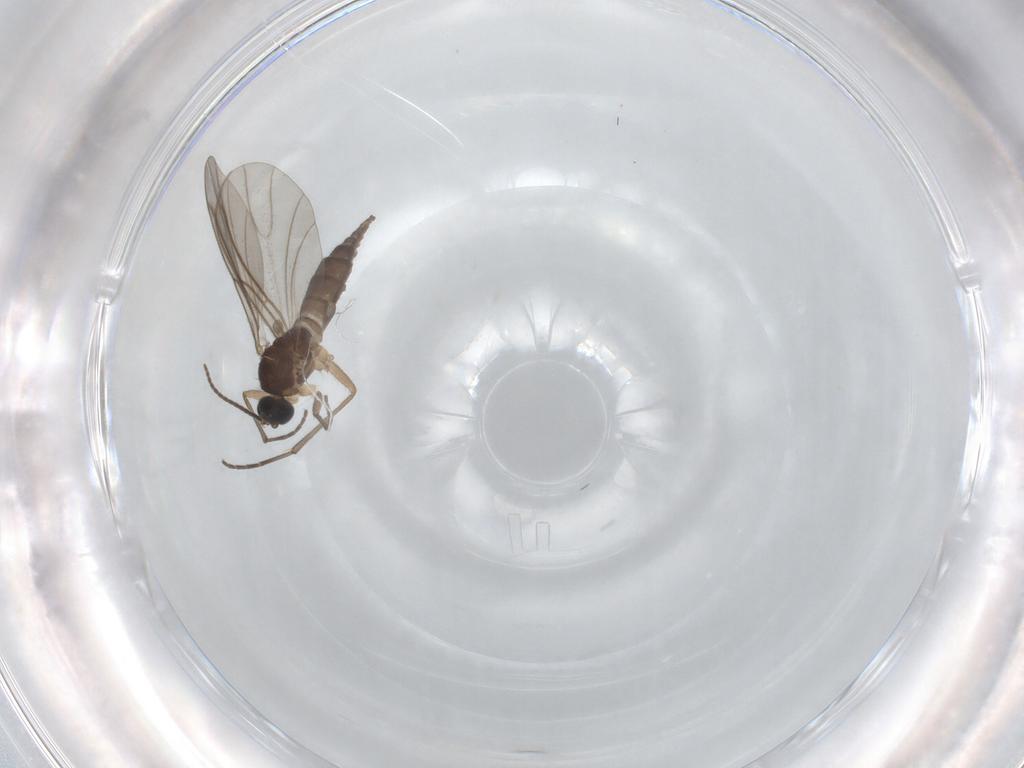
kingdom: Animalia
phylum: Arthropoda
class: Insecta
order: Diptera
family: Sciaridae
